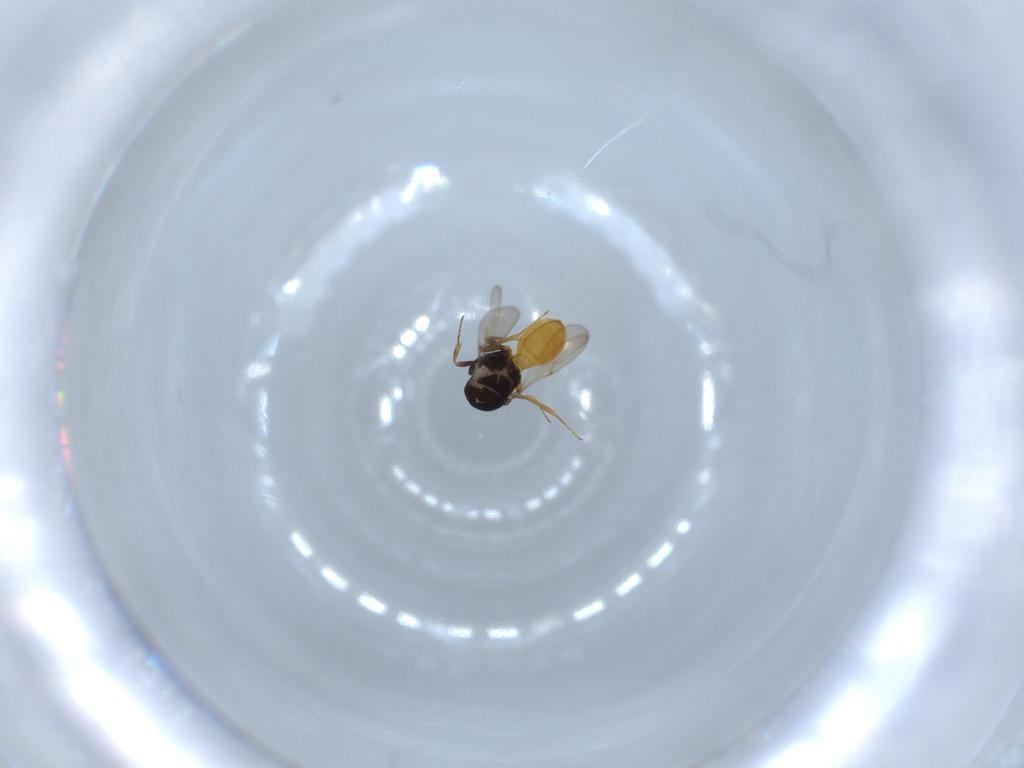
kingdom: Animalia
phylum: Arthropoda
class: Insecta
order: Hymenoptera
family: Scelionidae
